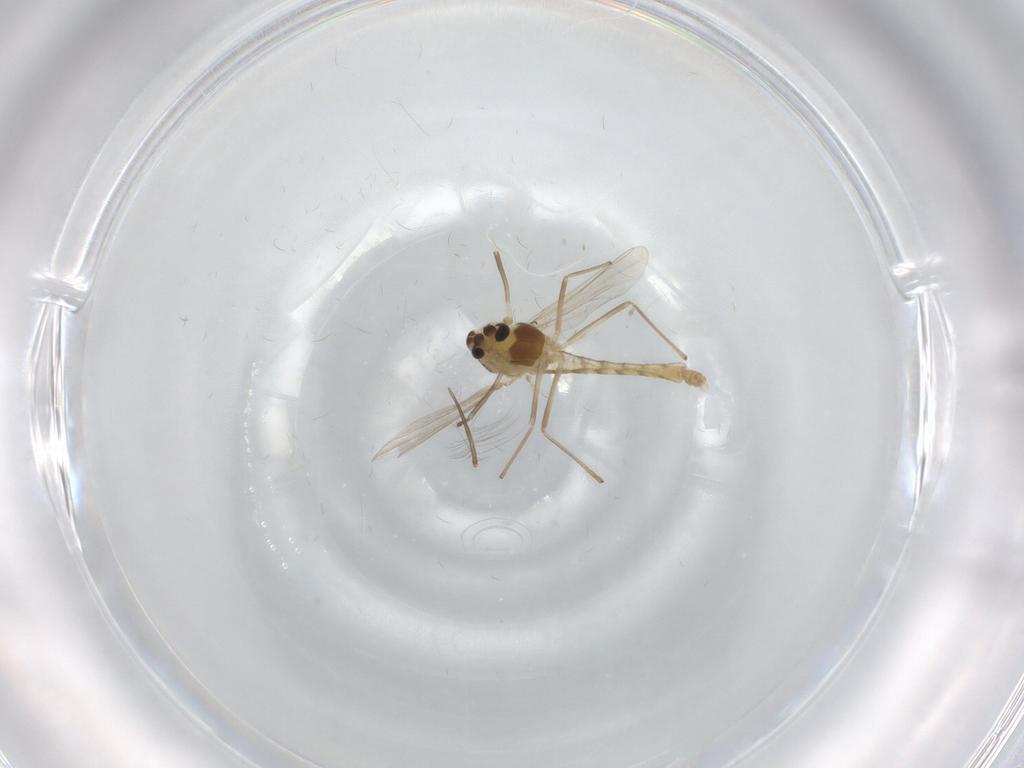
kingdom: Animalia
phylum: Arthropoda
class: Insecta
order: Diptera
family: Chironomidae
